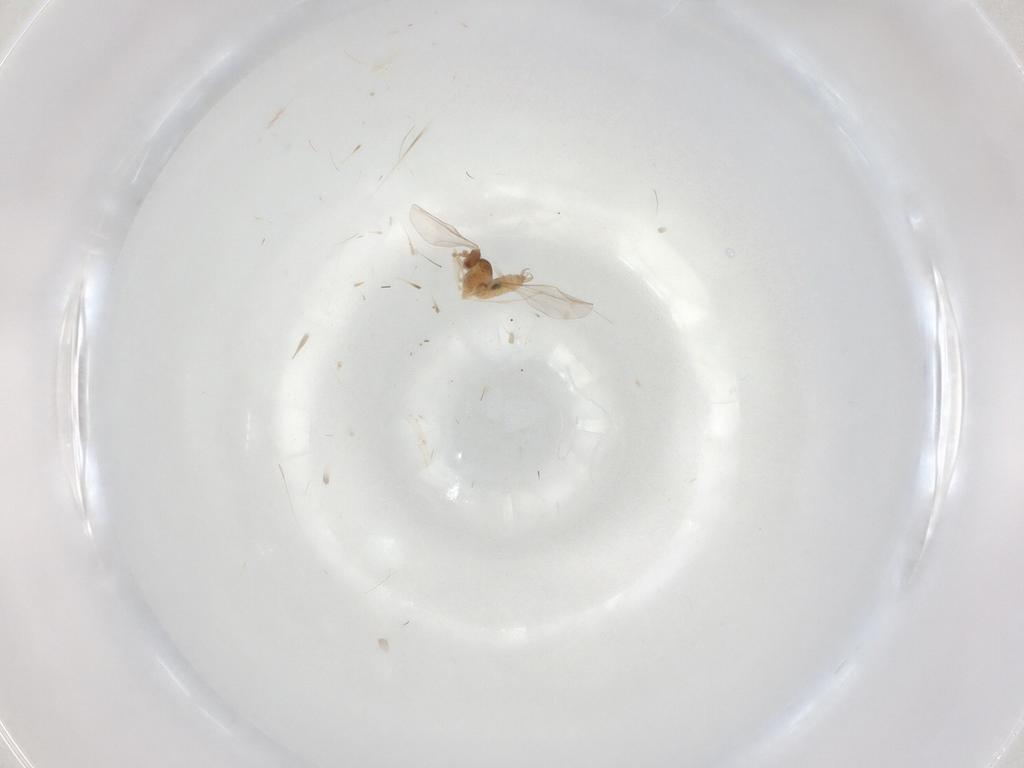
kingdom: Animalia
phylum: Arthropoda
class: Insecta
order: Diptera
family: Cecidomyiidae
